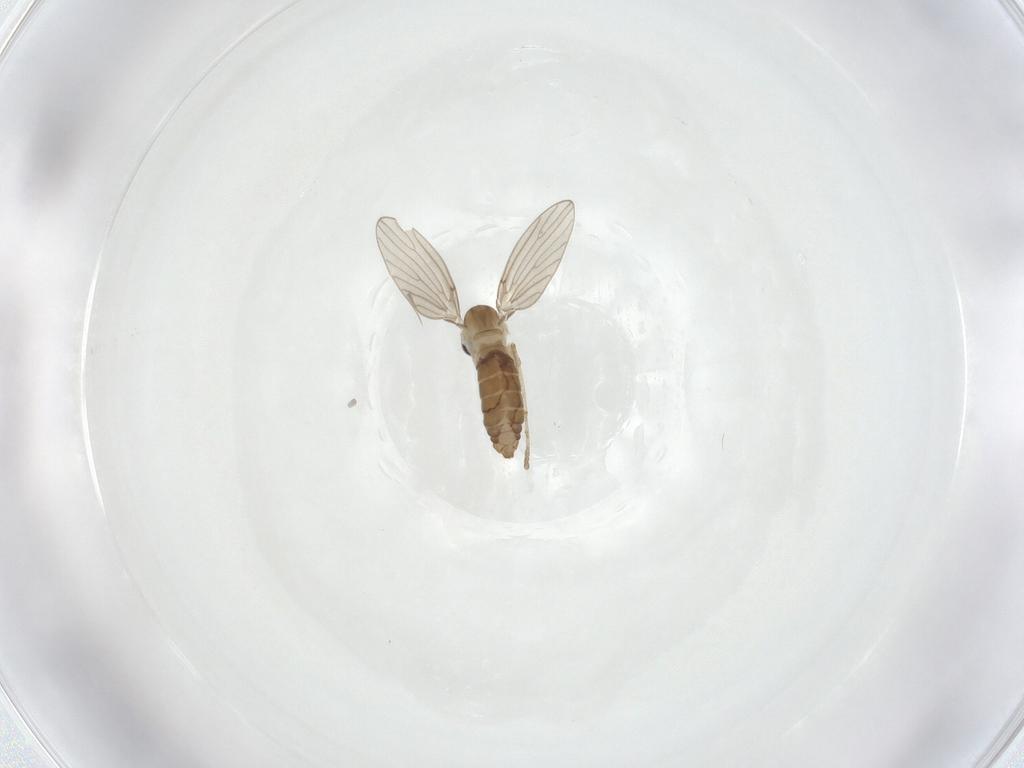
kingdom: Animalia
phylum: Arthropoda
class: Insecta
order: Diptera
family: Psychodidae
